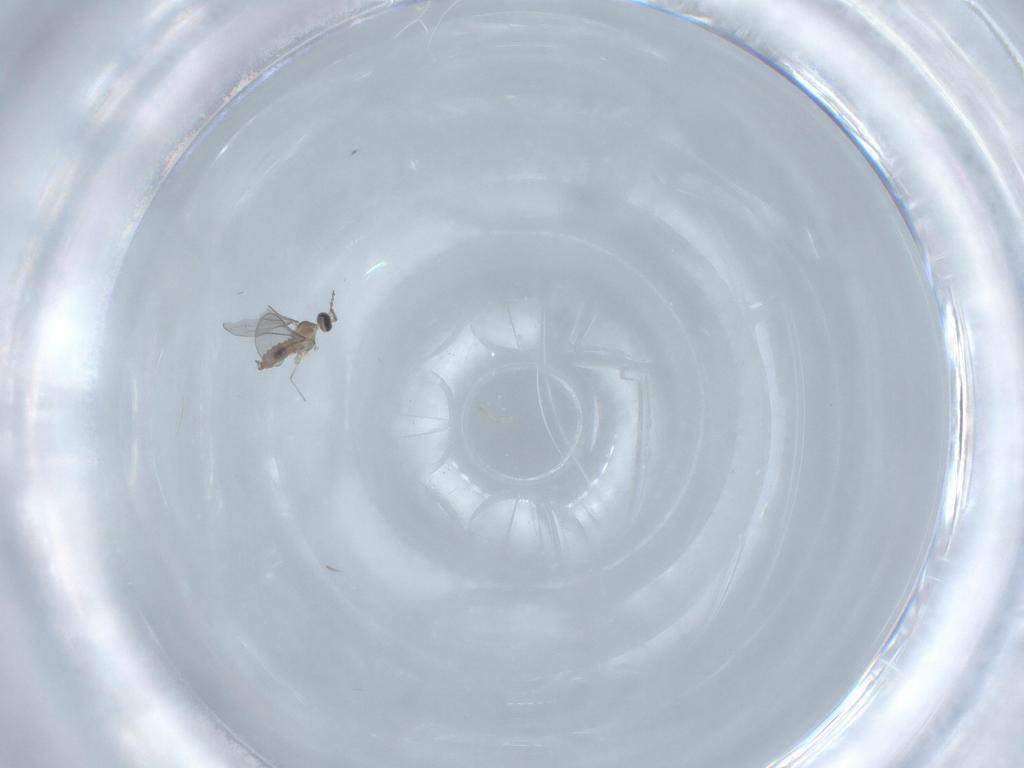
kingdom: Animalia
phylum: Arthropoda
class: Insecta
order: Diptera
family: Cecidomyiidae
